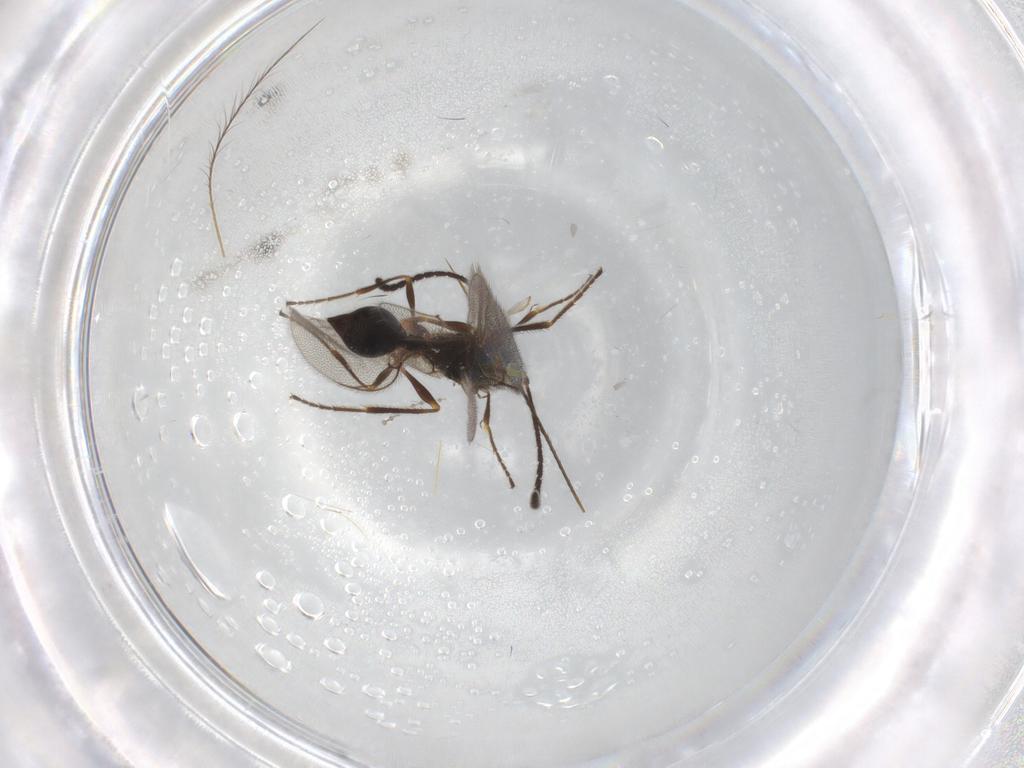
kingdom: Animalia
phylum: Arthropoda
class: Insecta
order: Hymenoptera
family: Diapriidae
